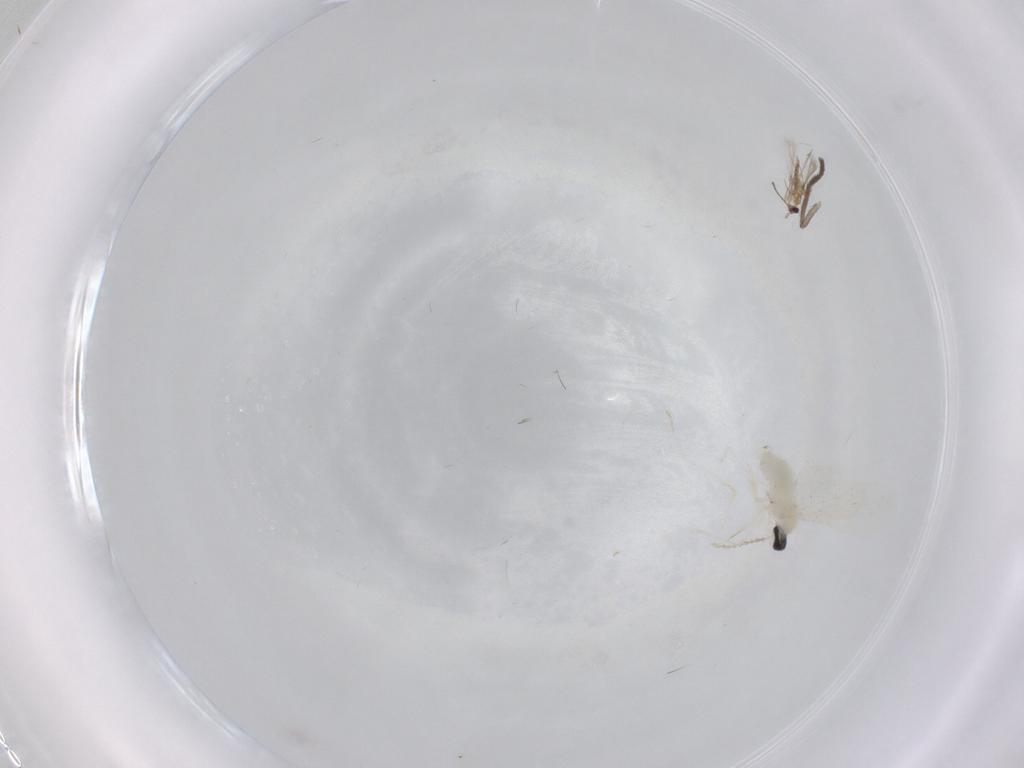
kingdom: Animalia
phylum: Arthropoda
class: Insecta
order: Diptera
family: Cecidomyiidae
